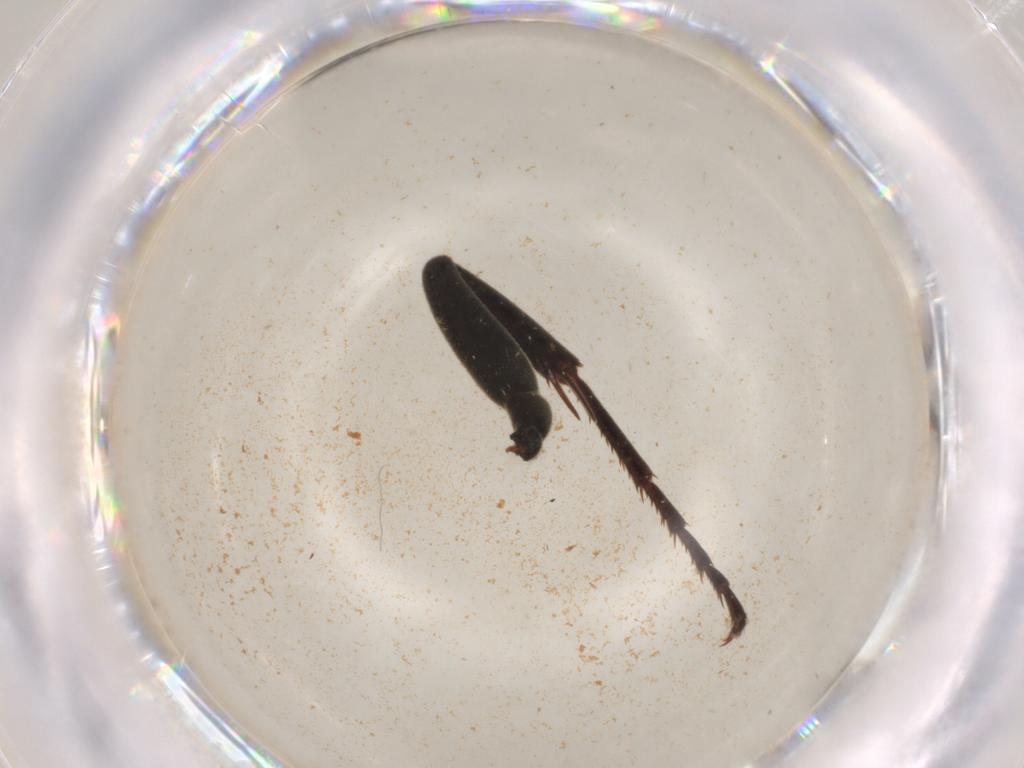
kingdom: Animalia
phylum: Arthropoda
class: Insecta
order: Hymenoptera
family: Pompilidae
